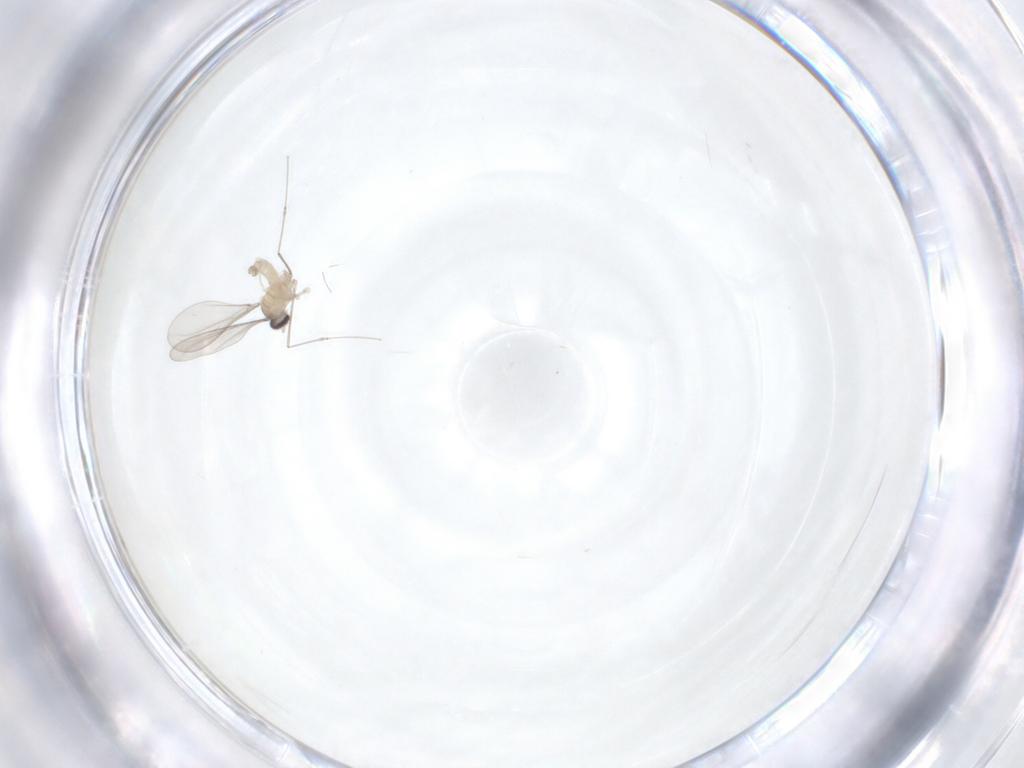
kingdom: Animalia
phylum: Arthropoda
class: Insecta
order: Diptera
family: Cecidomyiidae
